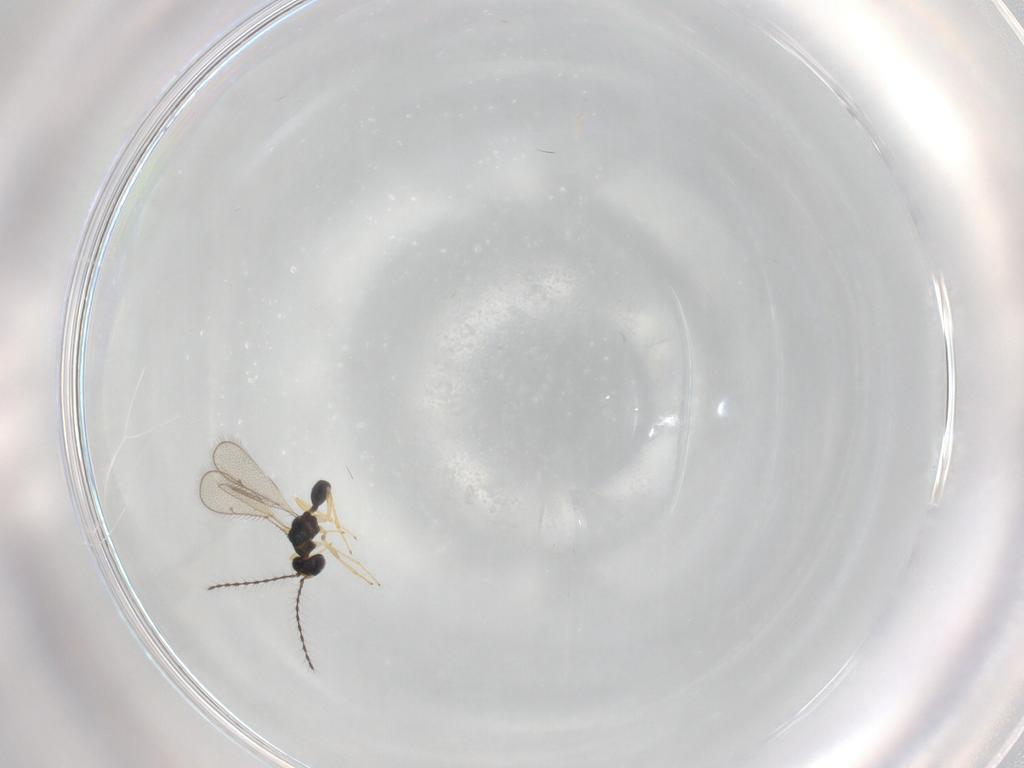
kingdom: Animalia
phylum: Arthropoda
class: Insecta
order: Hymenoptera
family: Diparidae
